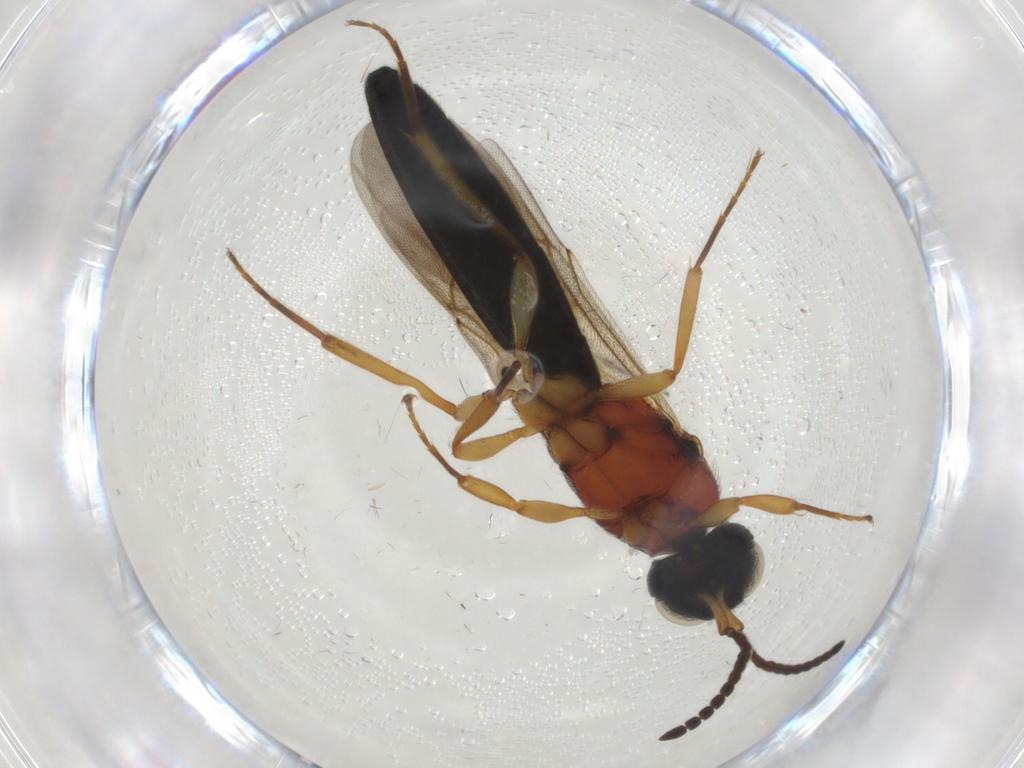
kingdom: Animalia
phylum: Arthropoda
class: Insecta
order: Hymenoptera
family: Scelionidae
